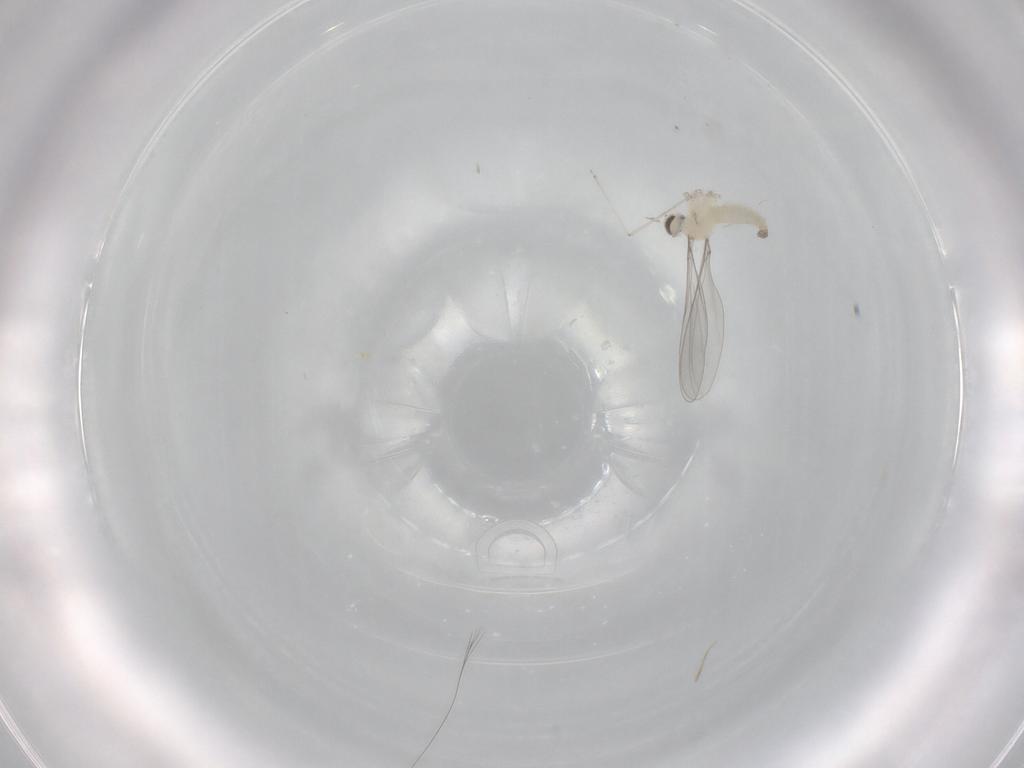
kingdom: Animalia
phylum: Arthropoda
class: Insecta
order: Diptera
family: Cecidomyiidae
